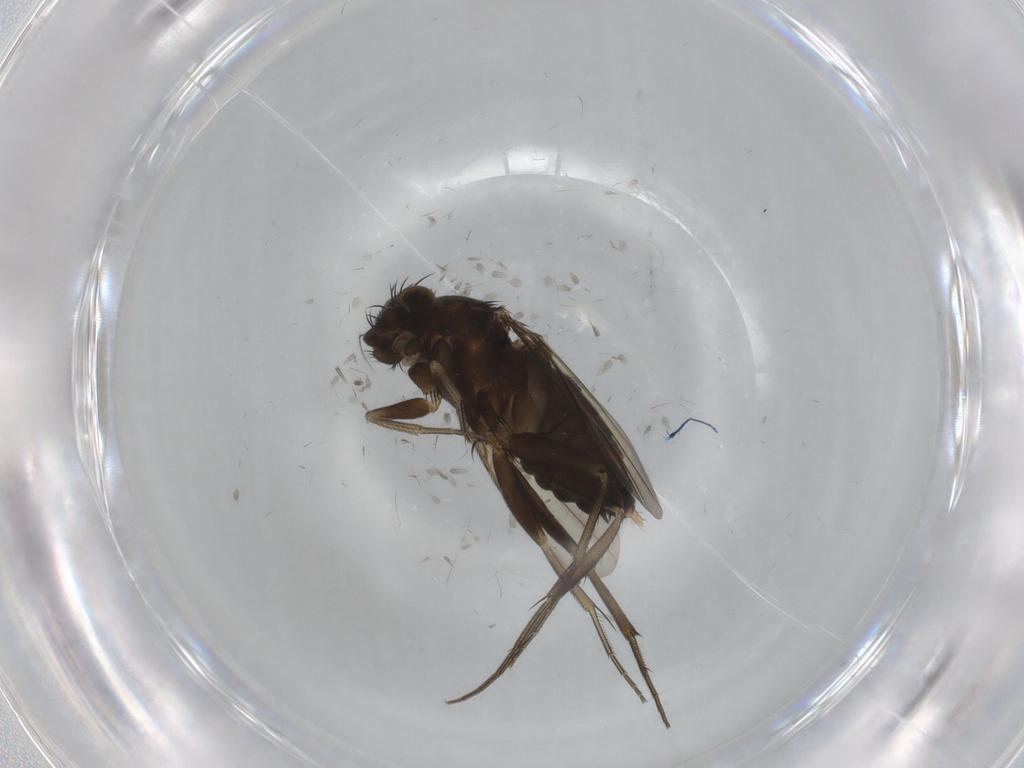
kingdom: Animalia
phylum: Arthropoda
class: Insecta
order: Diptera
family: Phoridae
